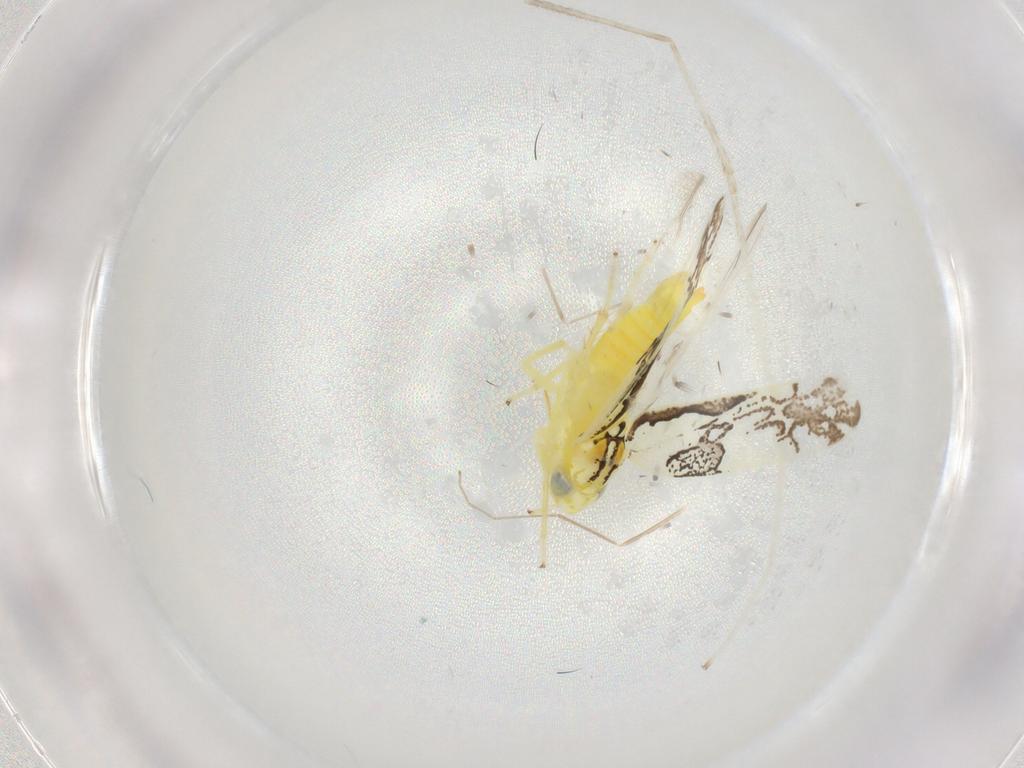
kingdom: Animalia
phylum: Arthropoda
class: Insecta
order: Hemiptera
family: Cicadellidae
